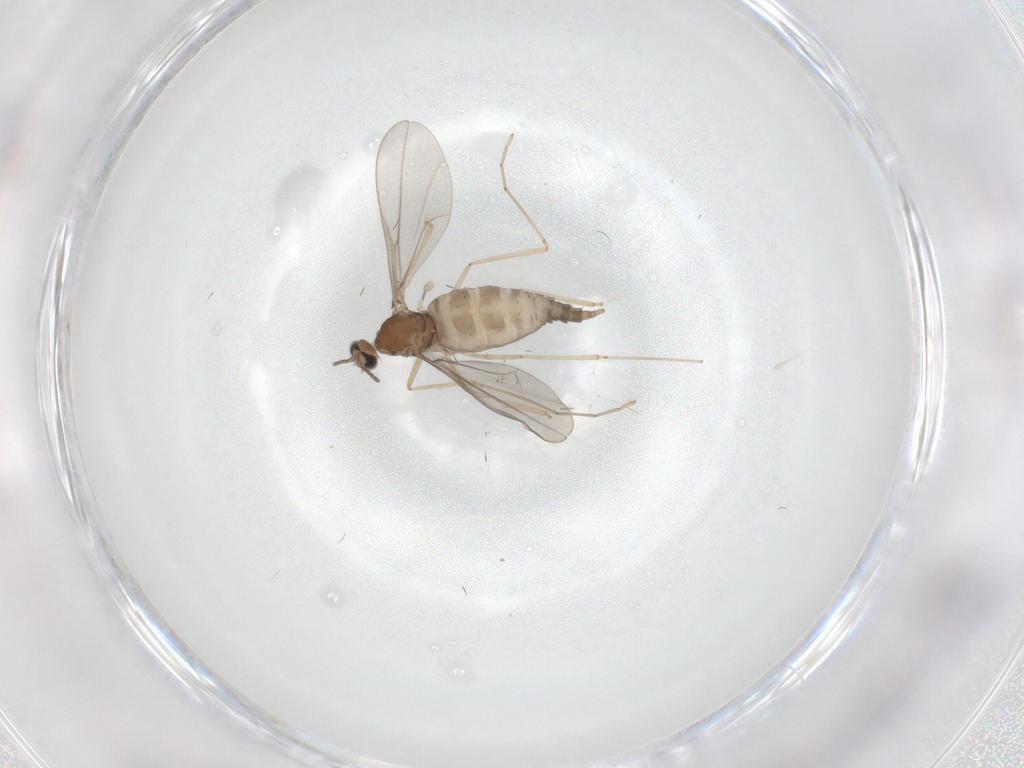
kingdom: Animalia
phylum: Arthropoda
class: Insecta
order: Diptera
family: Cecidomyiidae
